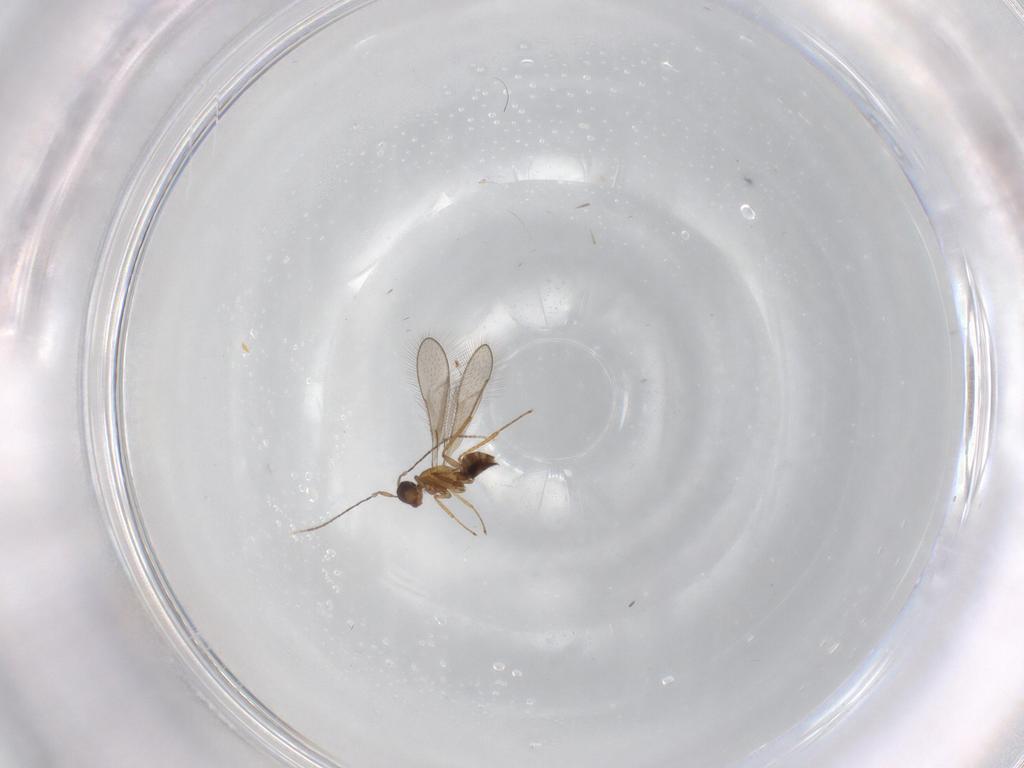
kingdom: Animalia
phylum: Arthropoda
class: Insecta
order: Hymenoptera
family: Mymaridae
